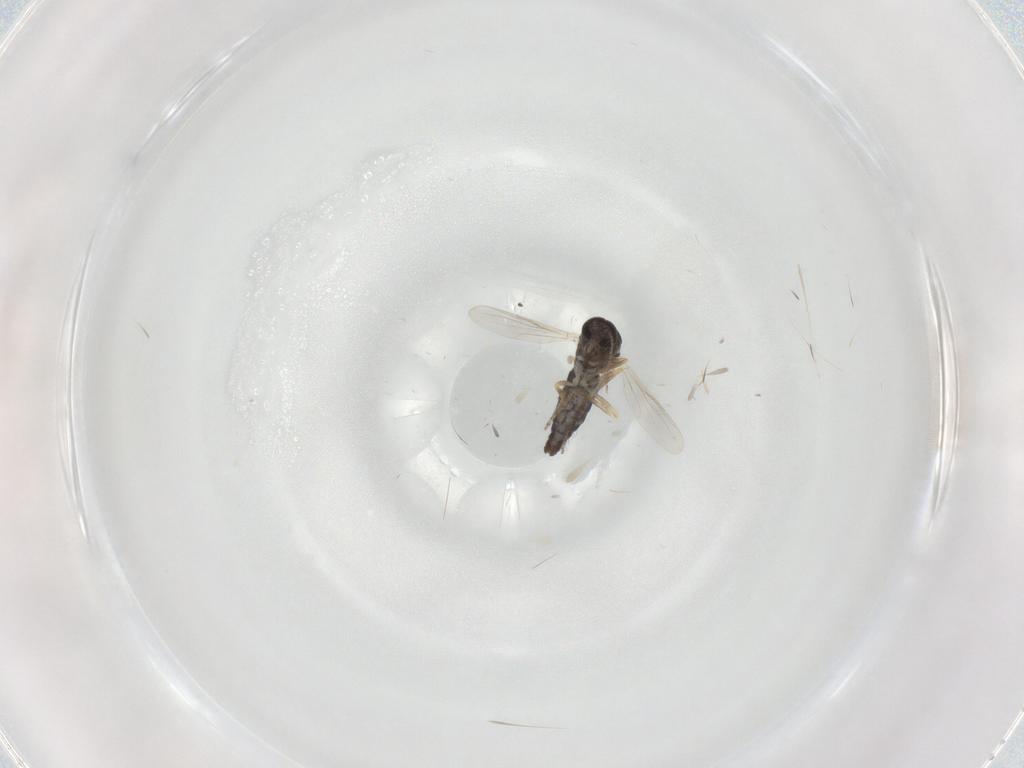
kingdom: Animalia
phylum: Arthropoda
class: Insecta
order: Diptera
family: Ceratopogonidae
